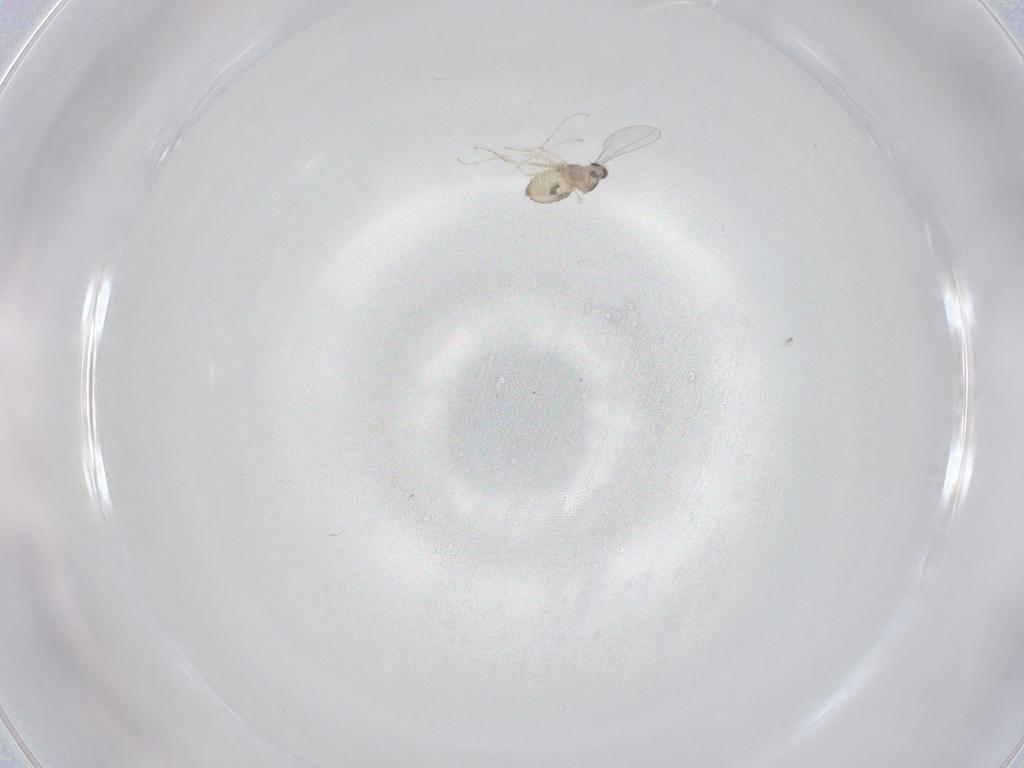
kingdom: Animalia
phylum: Arthropoda
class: Insecta
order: Diptera
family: Cecidomyiidae
